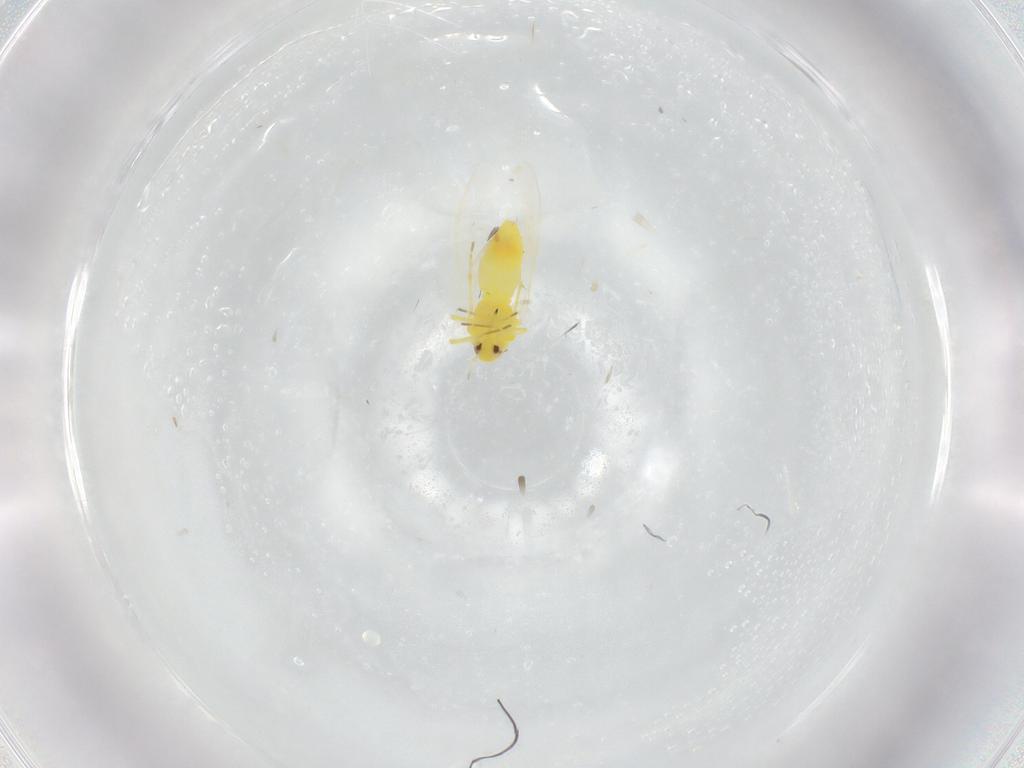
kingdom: Animalia
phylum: Arthropoda
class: Insecta
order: Hemiptera
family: Aleyrodidae
